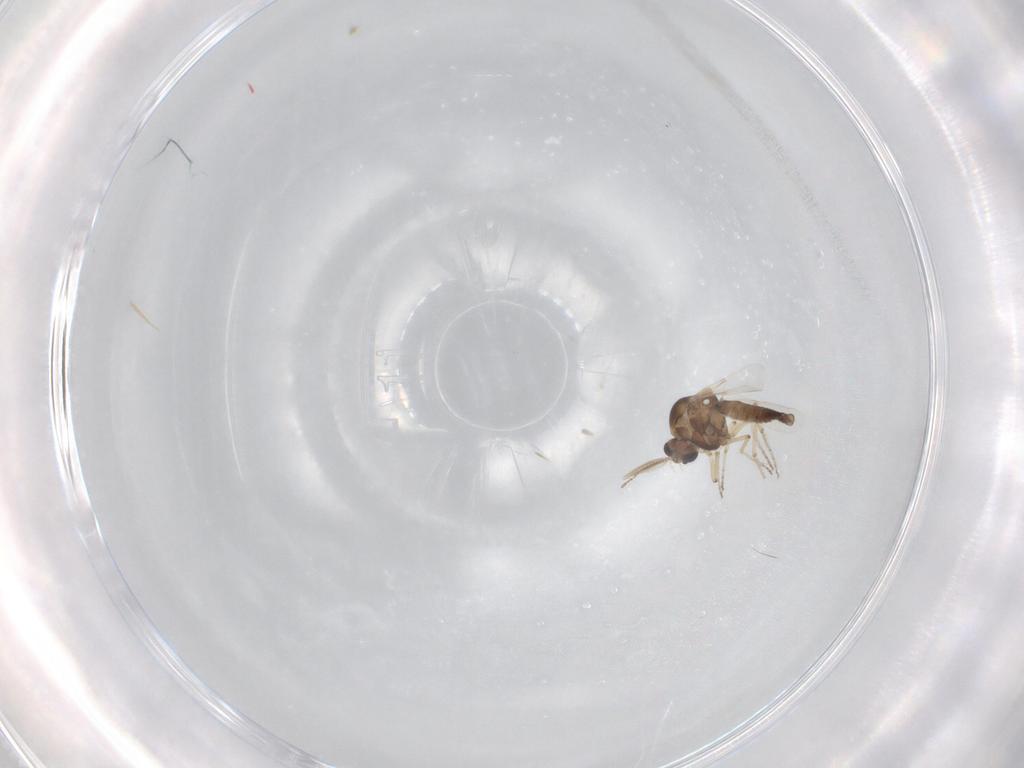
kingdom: Animalia
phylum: Arthropoda
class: Insecta
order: Diptera
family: Ceratopogonidae
